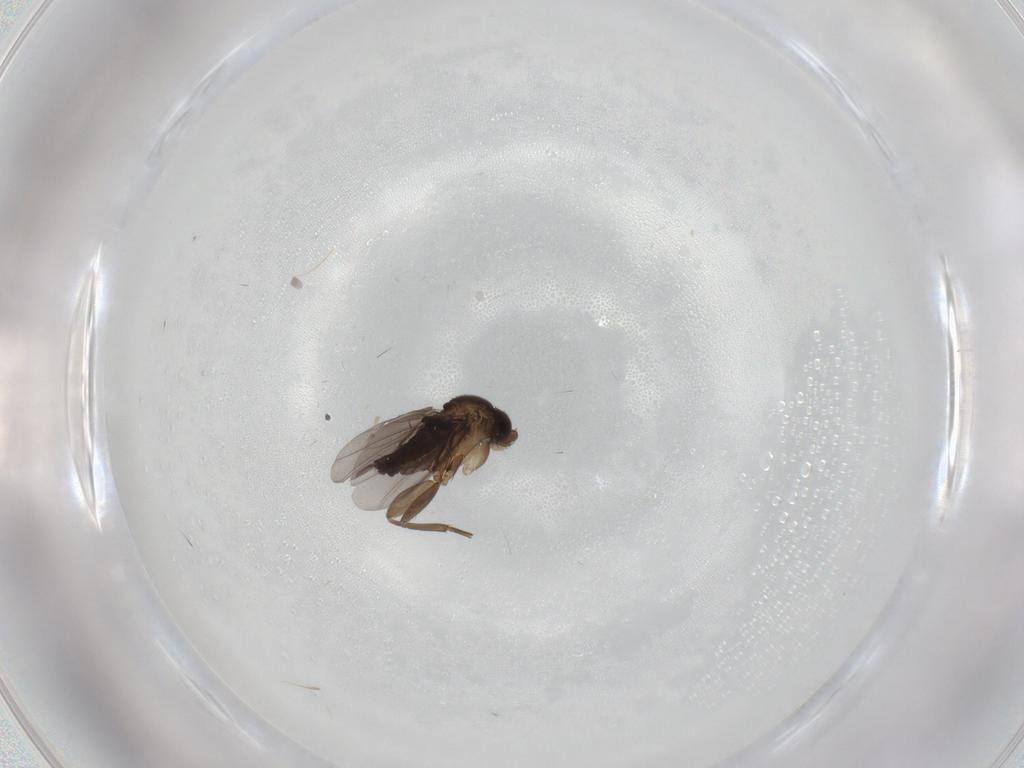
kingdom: Animalia
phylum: Arthropoda
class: Insecta
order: Diptera
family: Phoridae
